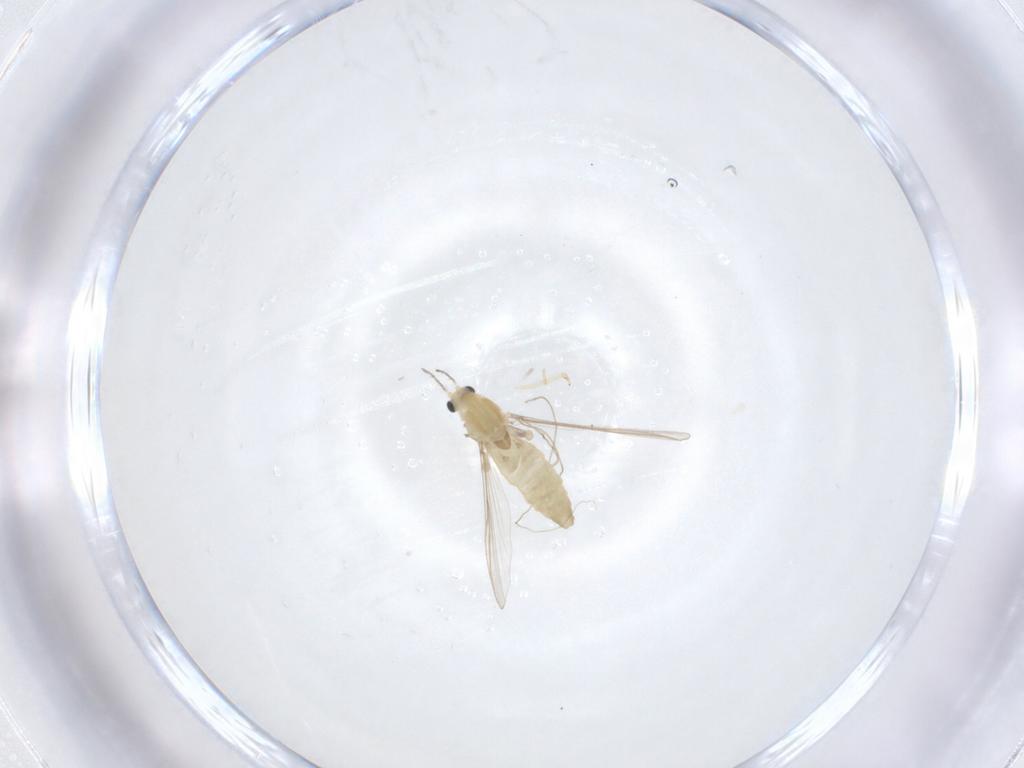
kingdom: Animalia
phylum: Arthropoda
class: Insecta
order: Diptera
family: Chironomidae
